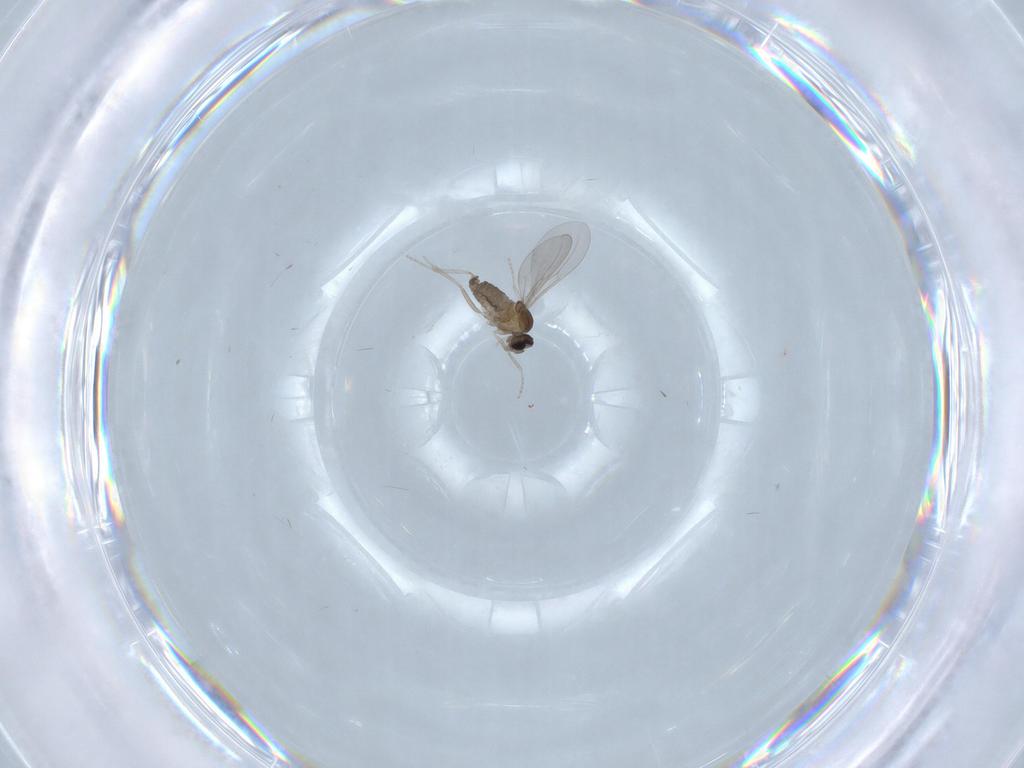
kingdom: Animalia
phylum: Arthropoda
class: Insecta
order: Diptera
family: Cecidomyiidae
